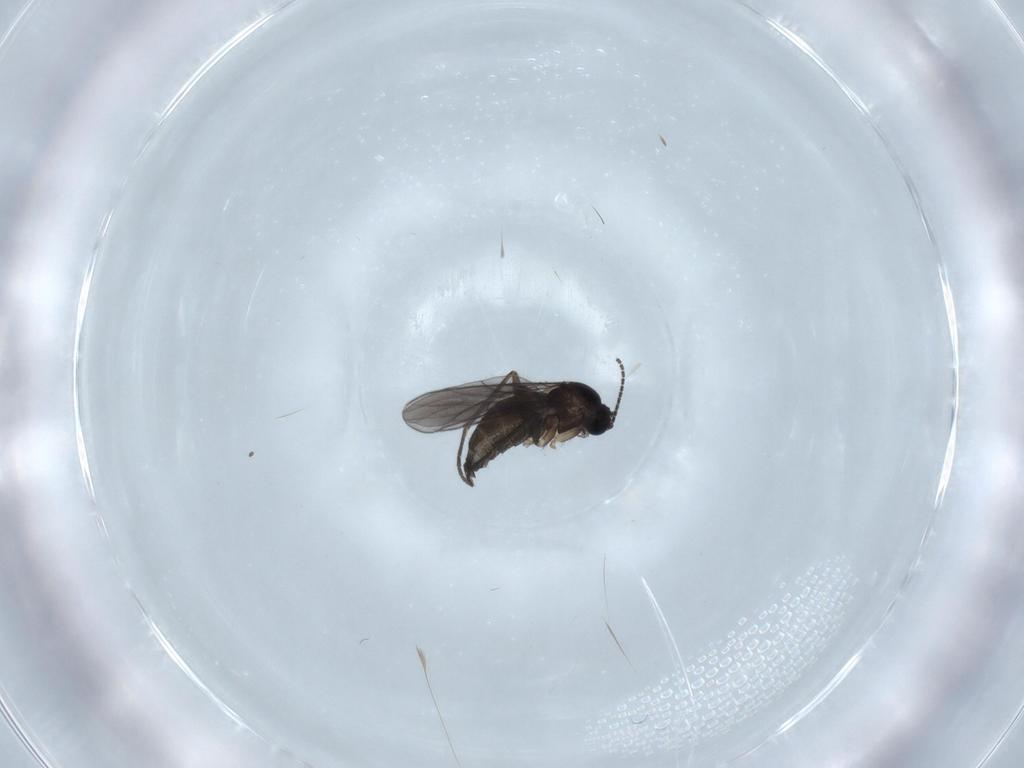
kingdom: Animalia
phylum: Arthropoda
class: Insecta
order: Diptera
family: Sciaridae
